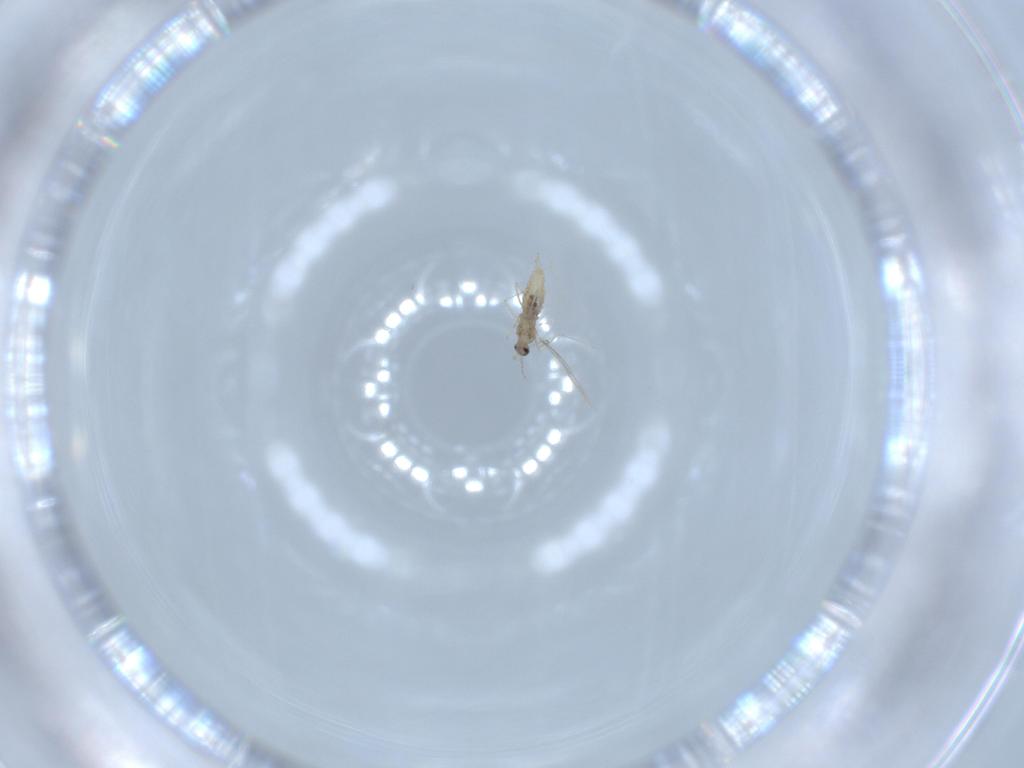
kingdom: Animalia
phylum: Arthropoda
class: Insecta
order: Diptera
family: Cecidomyiidae
